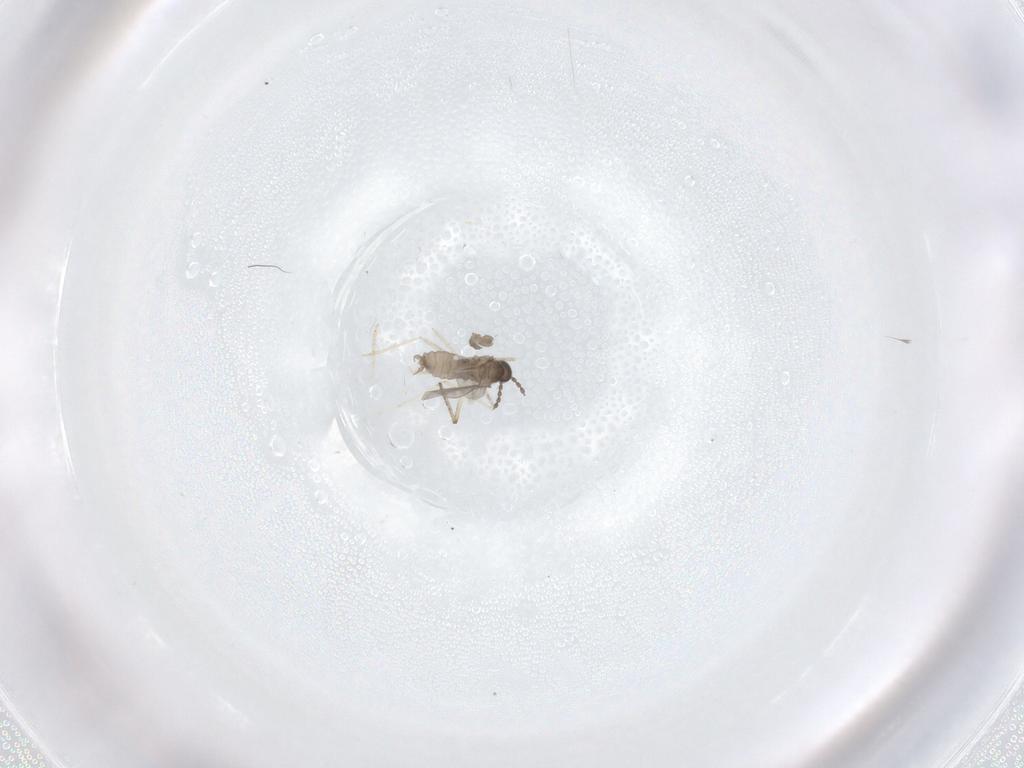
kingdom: Animalia
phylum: Arthropoda
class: Insecta
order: Diptera
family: Ceratopogonidae
